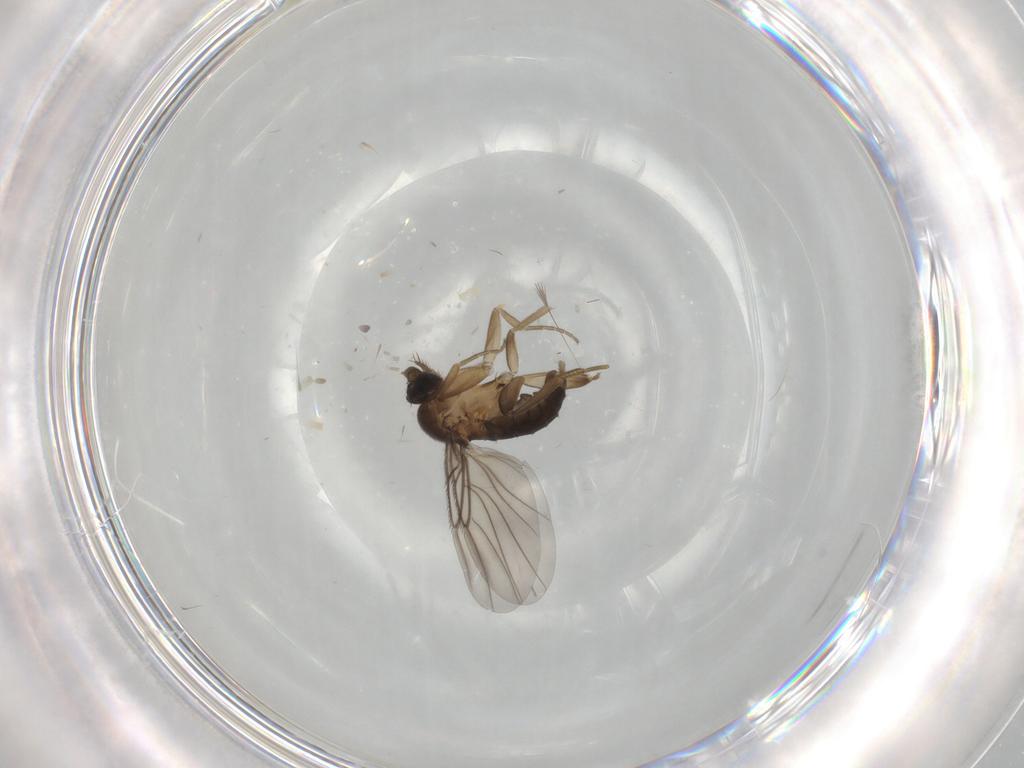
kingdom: Animalia
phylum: Arthropoda
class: Insecta
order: Diptera
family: Phoridae
